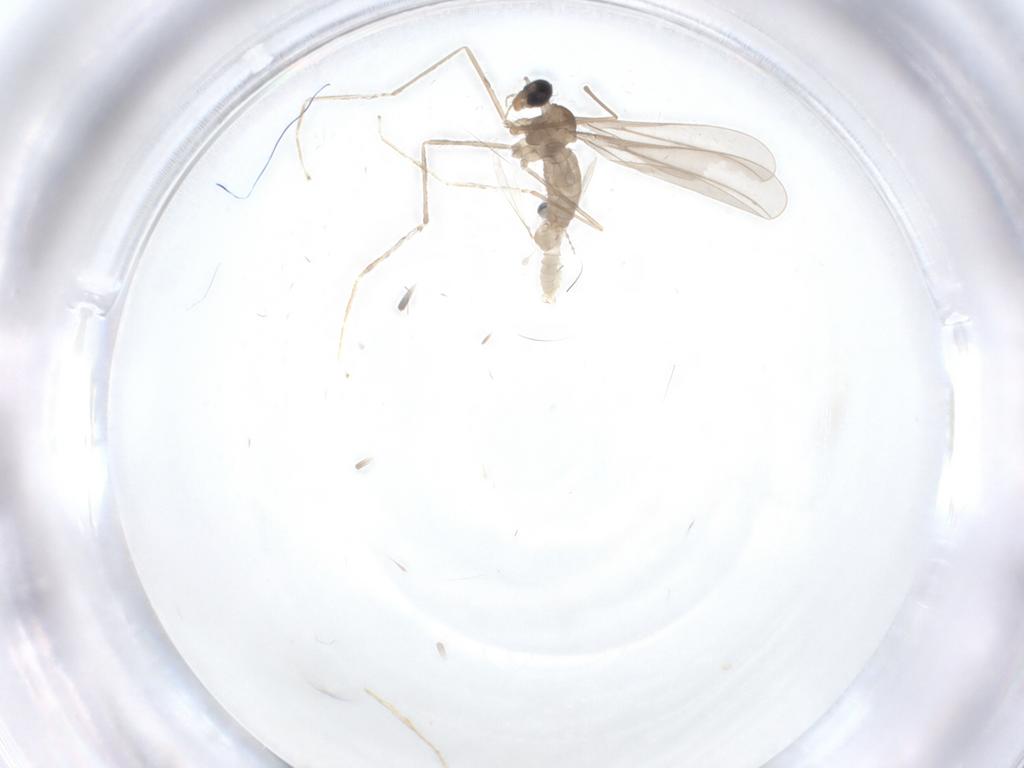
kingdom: Animalia
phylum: Arthropoda
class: Insecta
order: Diptera
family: Cecidomyiidae
